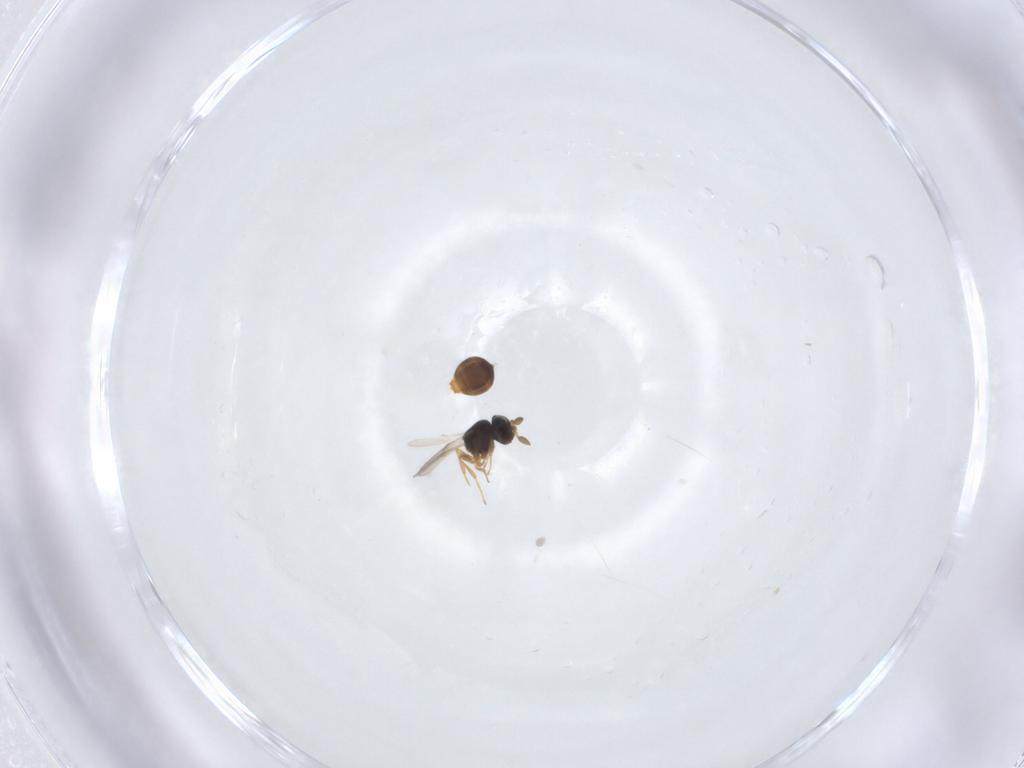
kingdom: Animalia
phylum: Arthropoda
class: Insecta
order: Hymenoptera
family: Scelionidae
